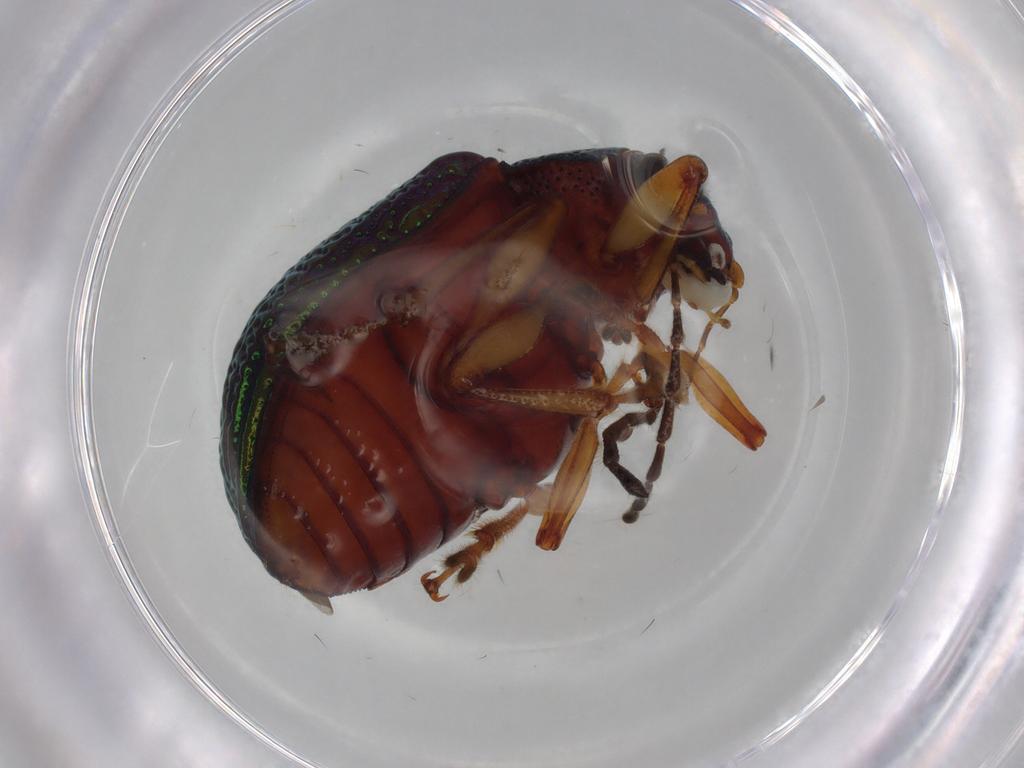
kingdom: Animalia
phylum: Arthropoda
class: Insecta
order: Coleoptera
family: Chrysomelidae
